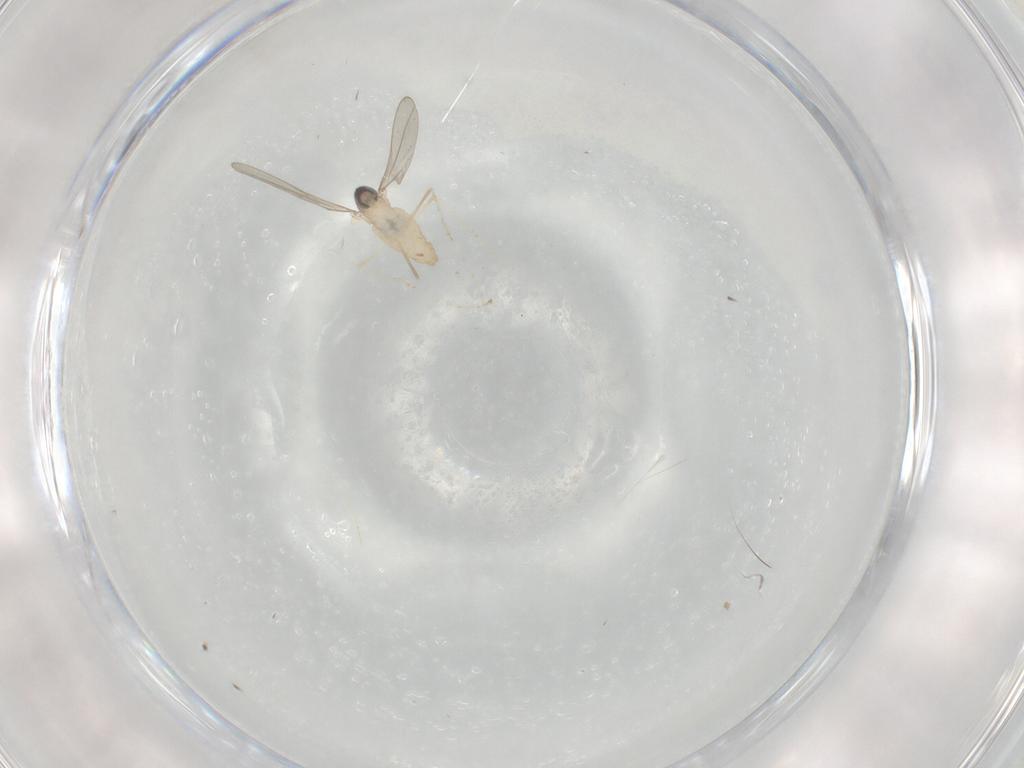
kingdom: Animalia
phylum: Arthropoda
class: Insecta
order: Diptera
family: Cecidomyiidae
